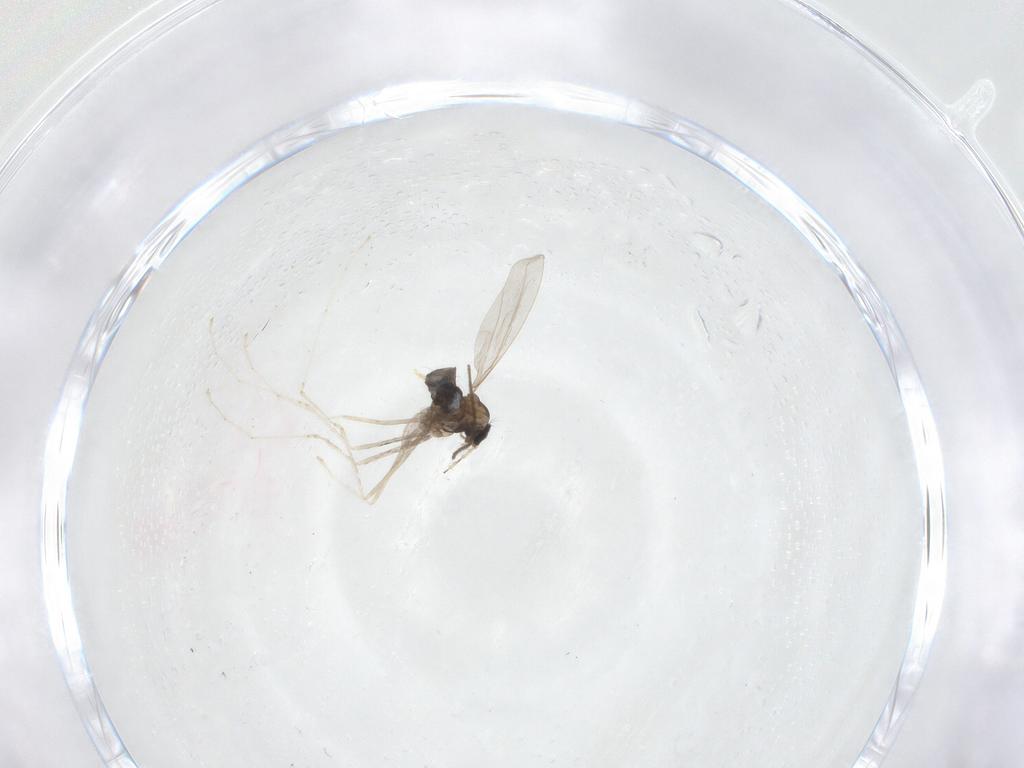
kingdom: Animalia
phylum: Arthropoda
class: Insecta
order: Diptera
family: Cecidomyiidae
